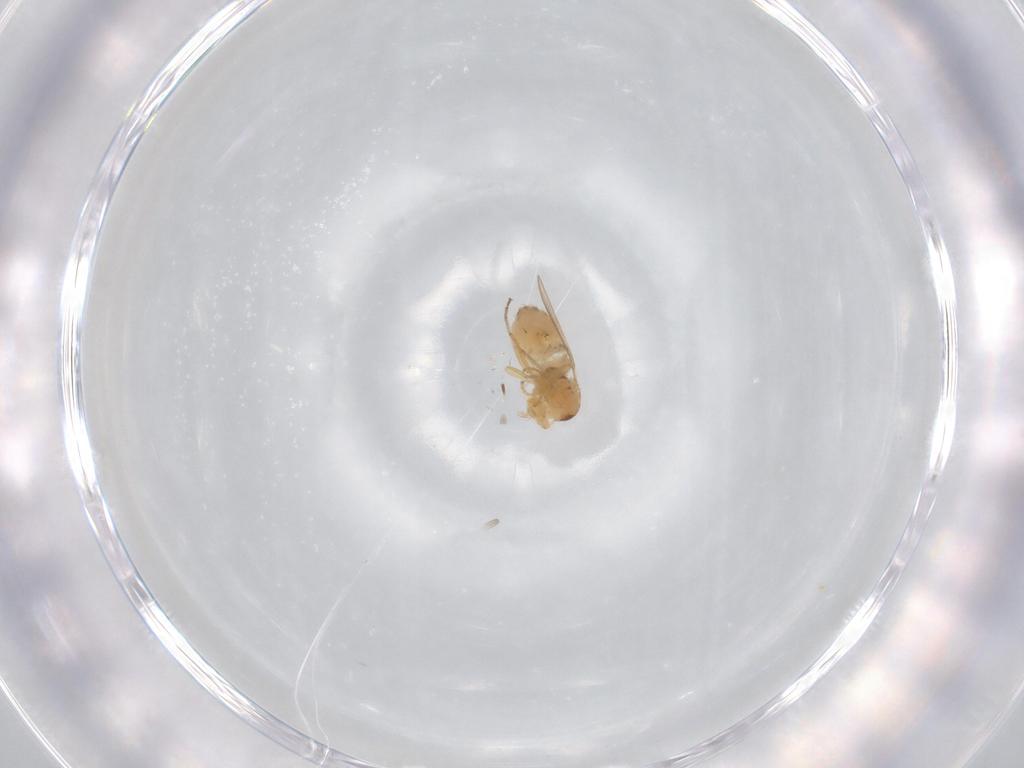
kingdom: Animalia
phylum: Arthropoda
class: Insecta
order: Diptera
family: Chyromyidae
